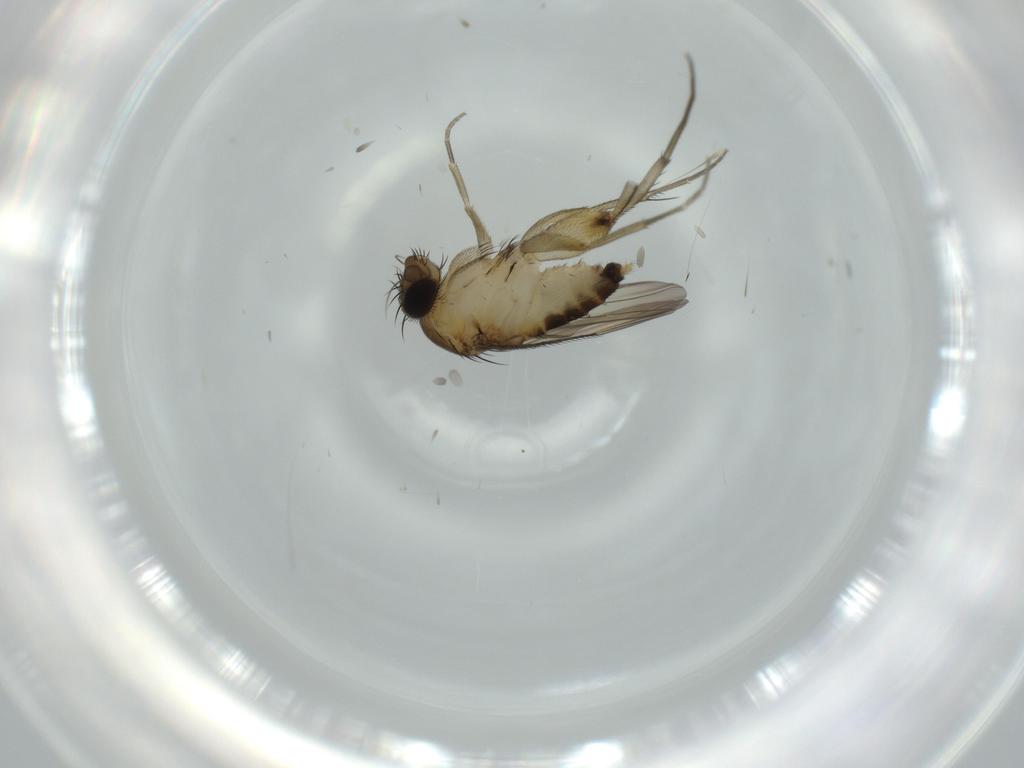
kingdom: Animalia
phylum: Arthropoda
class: Insecta
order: Diptera
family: Phoridae
